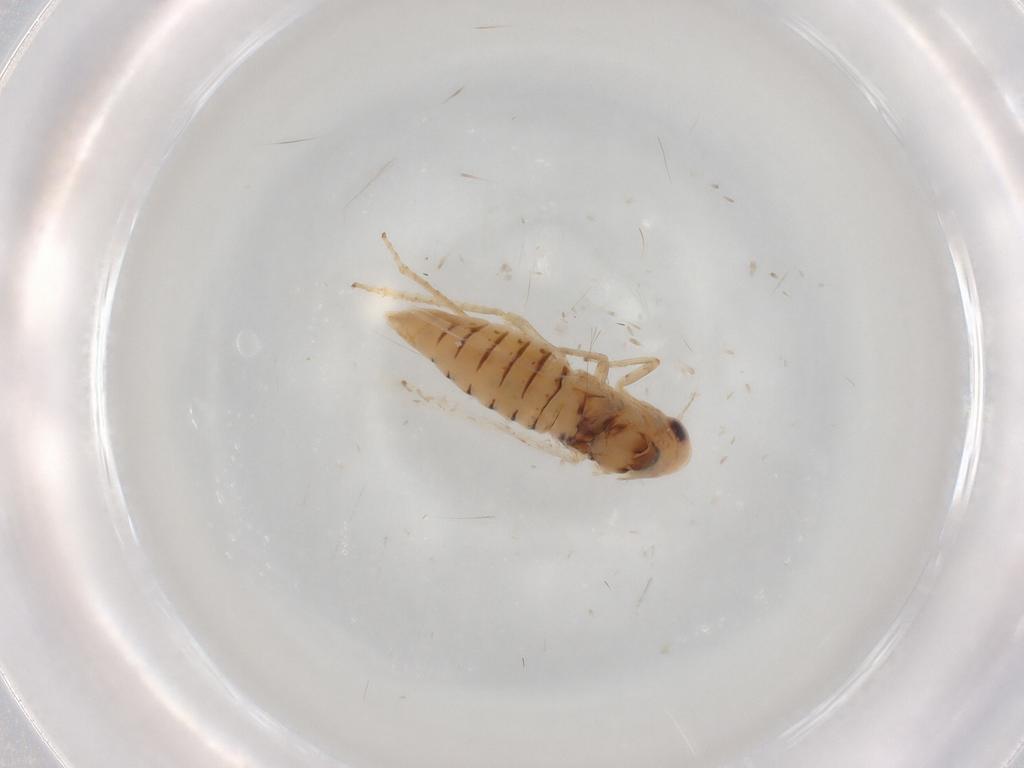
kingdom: Animalia
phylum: Arthropoda
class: Insecta
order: Hemiptera
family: Cicadellidae
